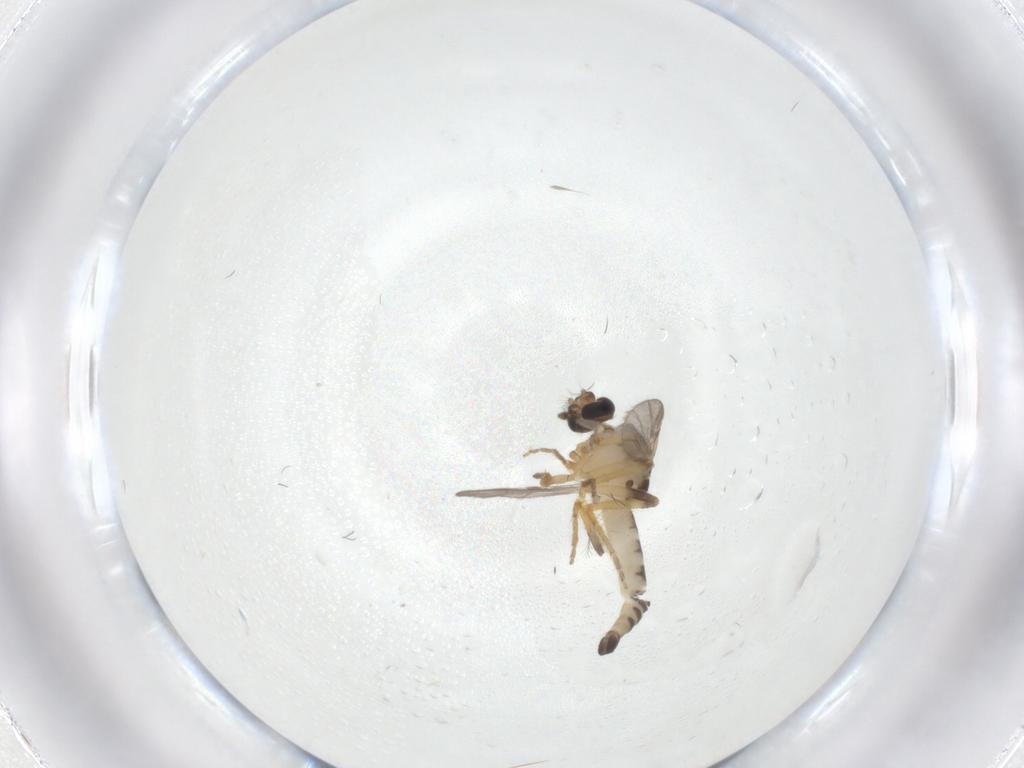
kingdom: Animalia
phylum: Arthropoda
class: Insecta
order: Diptera
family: Ceratopogonidae
